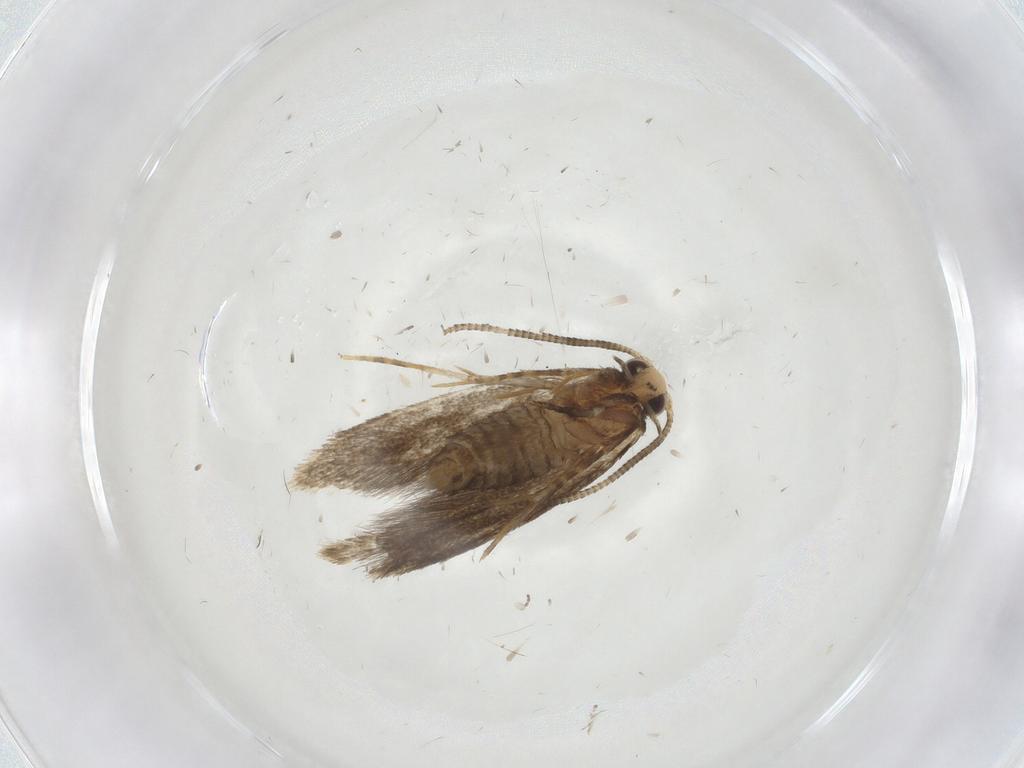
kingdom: Animalia
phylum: Arthropoda
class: Insecta
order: Lepidoptera
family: Tineidae
